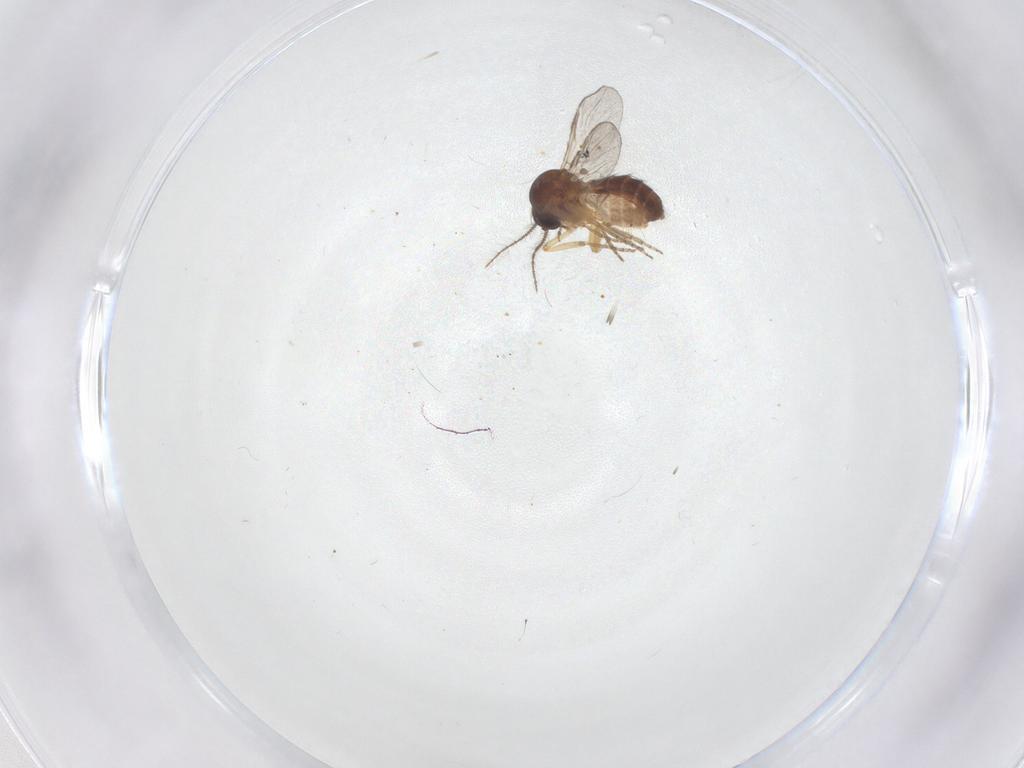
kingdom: Animalia
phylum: Arthropoda
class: Insecta
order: Diptera
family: Ceratopogonidae
